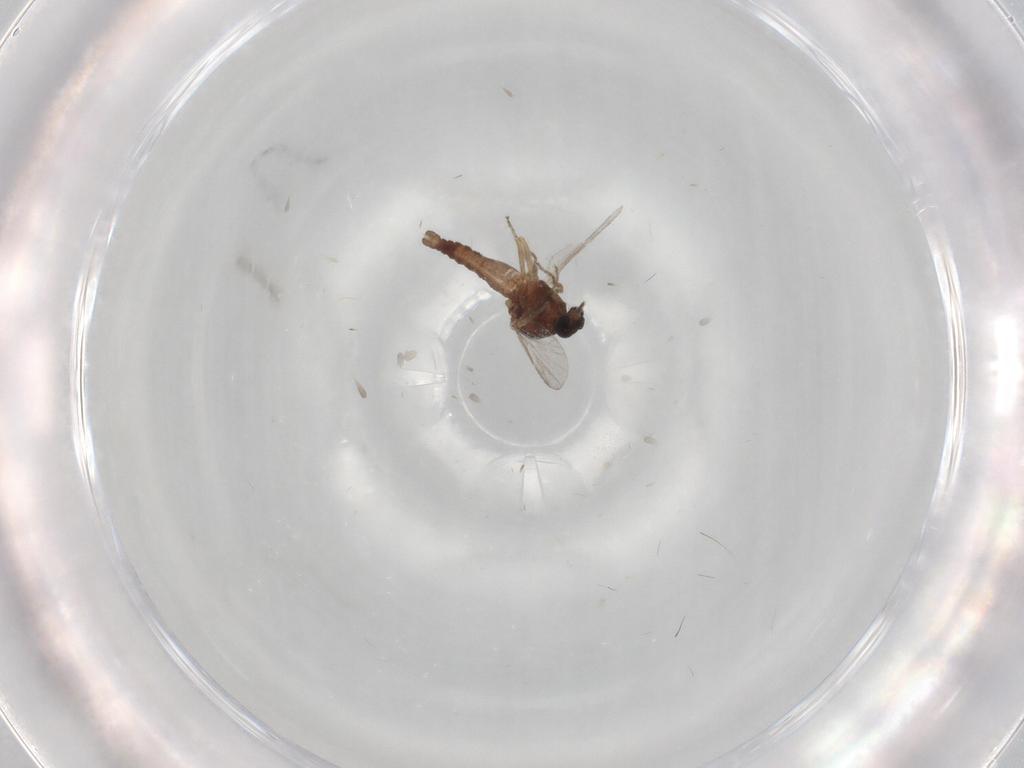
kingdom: Animalia
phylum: Arthropoda
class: Insecta
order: Diptera
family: Ceratopogonidae
